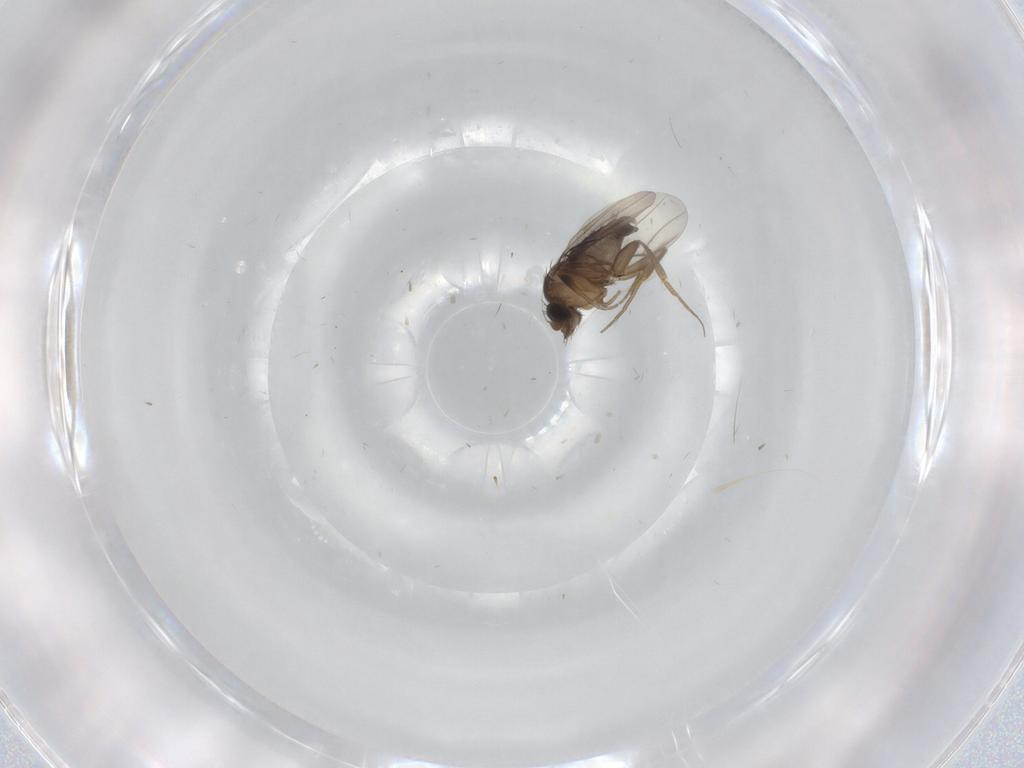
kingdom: Animalia
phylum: Arthropoda
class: Insecta
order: Diptera
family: Phoridae
